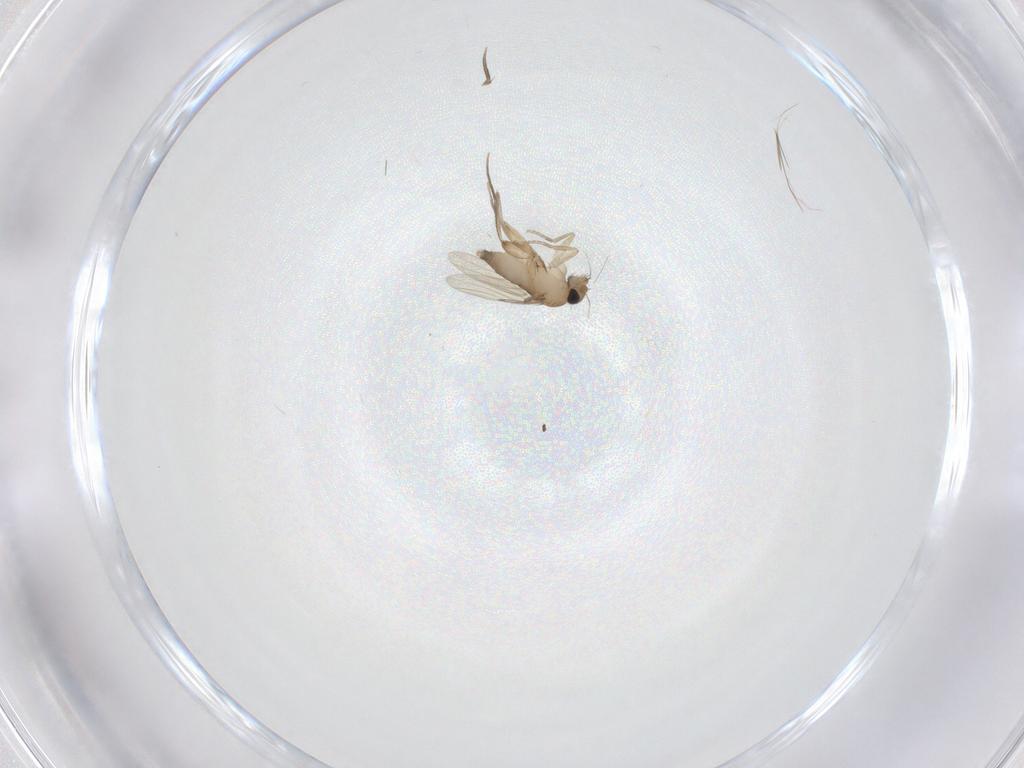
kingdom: Animalia
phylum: Arthropoda
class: Insecta
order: Diptera
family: Phoridae
